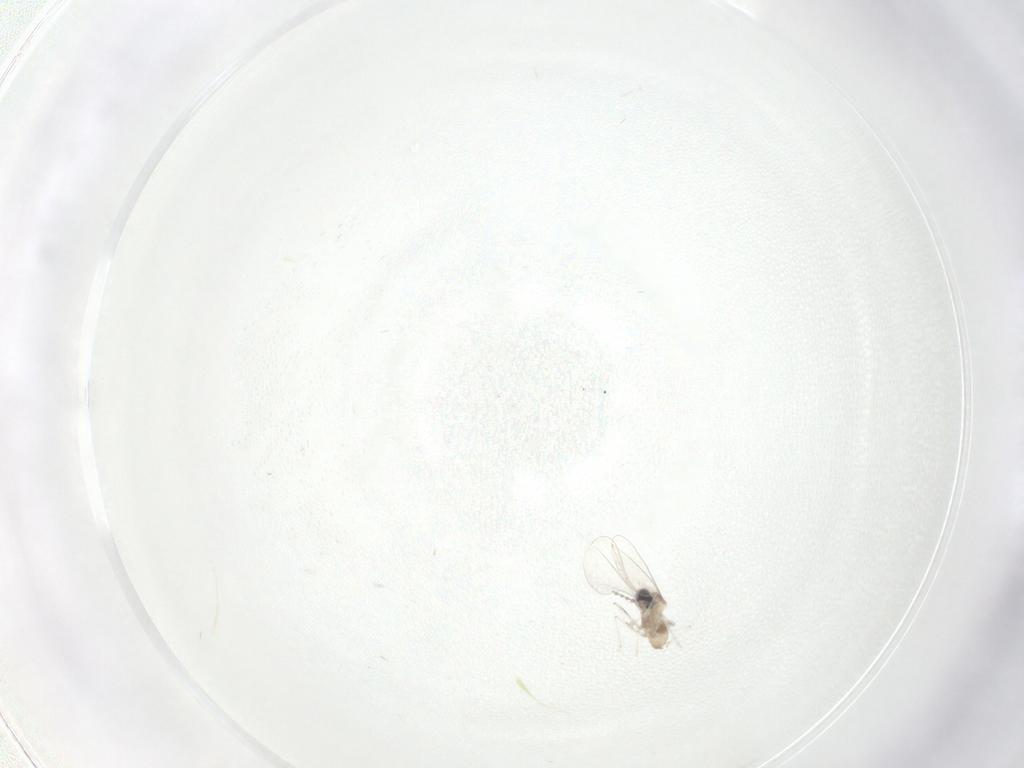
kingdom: Animalia
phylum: Arthropoda
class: Insecta
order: Diptera
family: Cecidomyiidae
